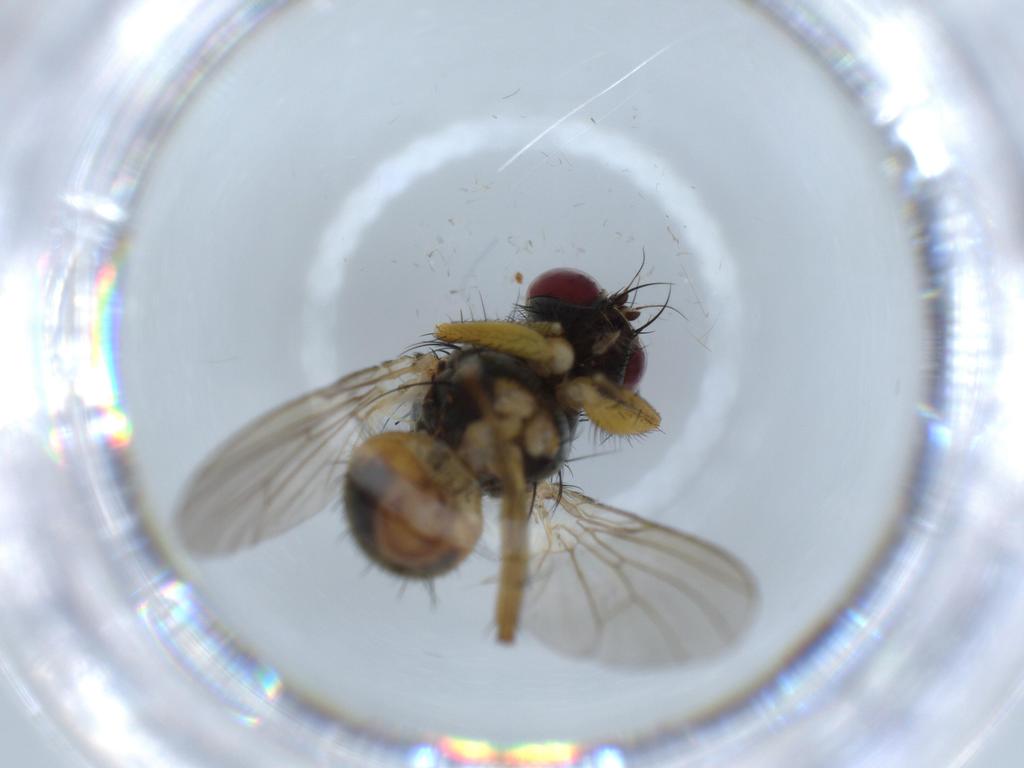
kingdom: Animalia
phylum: Arthropoda
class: Insecta
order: Diptera
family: Muscidae
